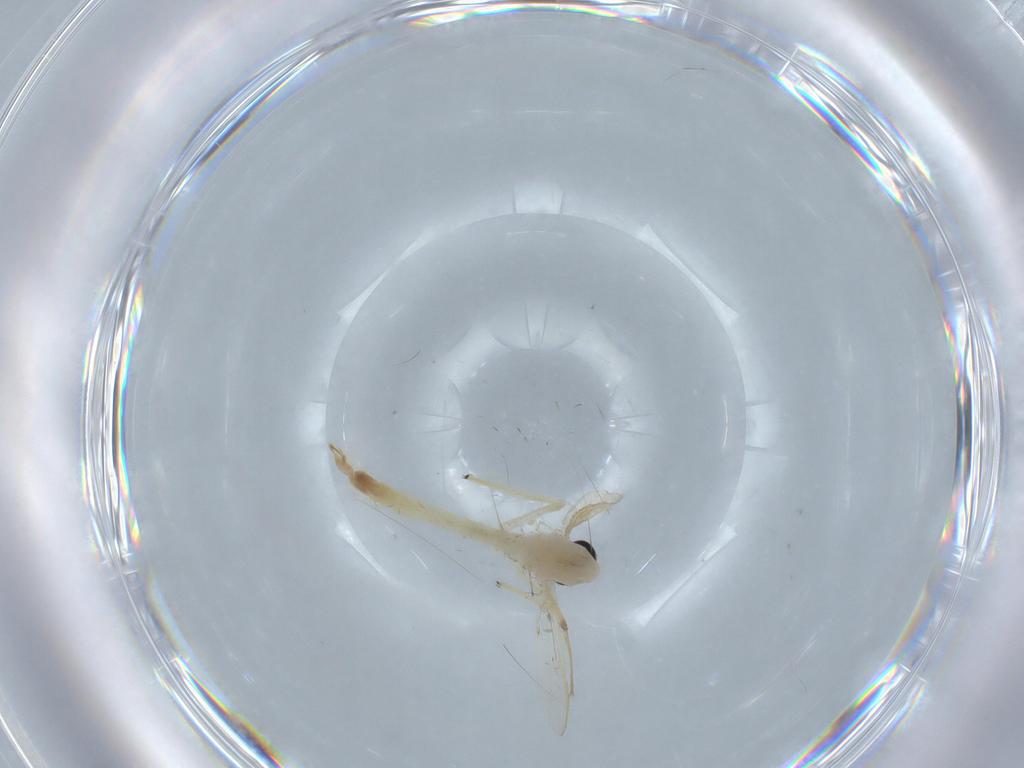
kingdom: Animalia
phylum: Arthropoda
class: Insecta
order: Diptera
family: Chironomidae
